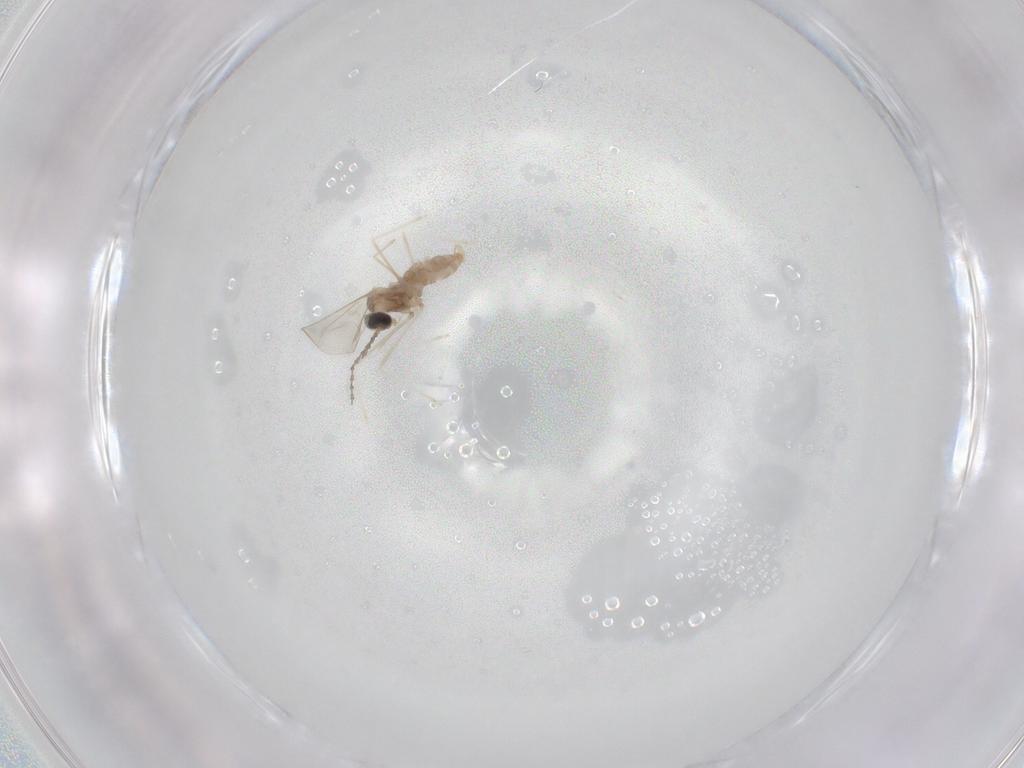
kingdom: Animalia
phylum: Arthropoda
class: Insecta
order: Diptera
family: Cecidomyiidae
